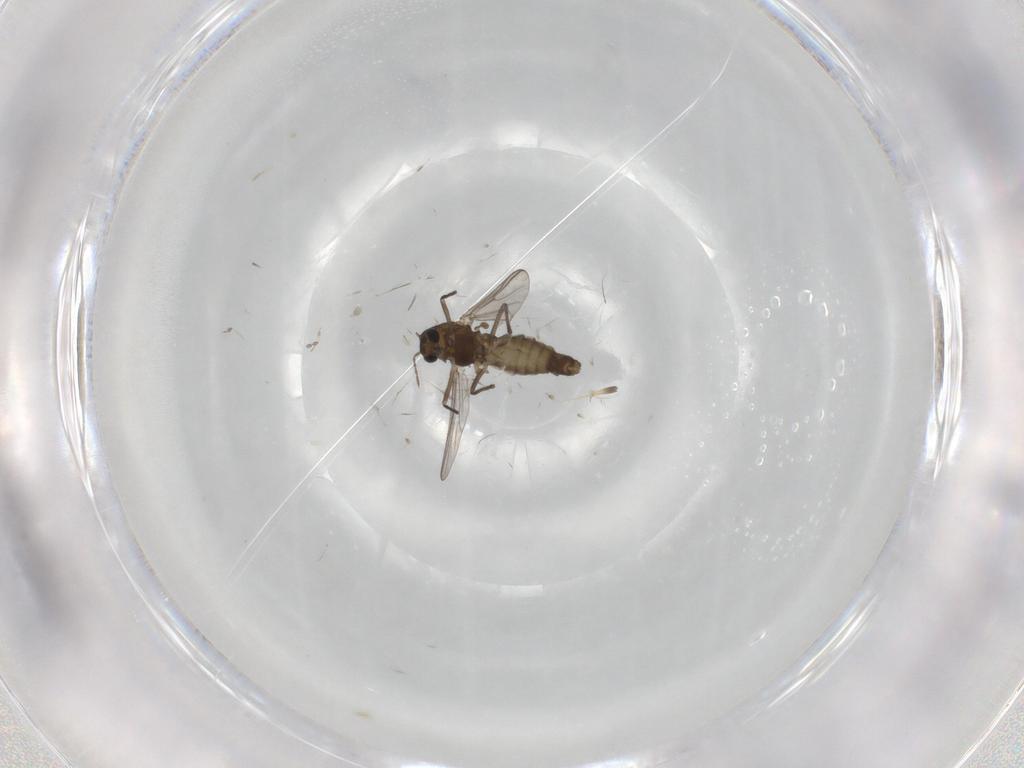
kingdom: Animalia
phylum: Arthropoda
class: Insecta
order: Diptera
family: Chironomidae
